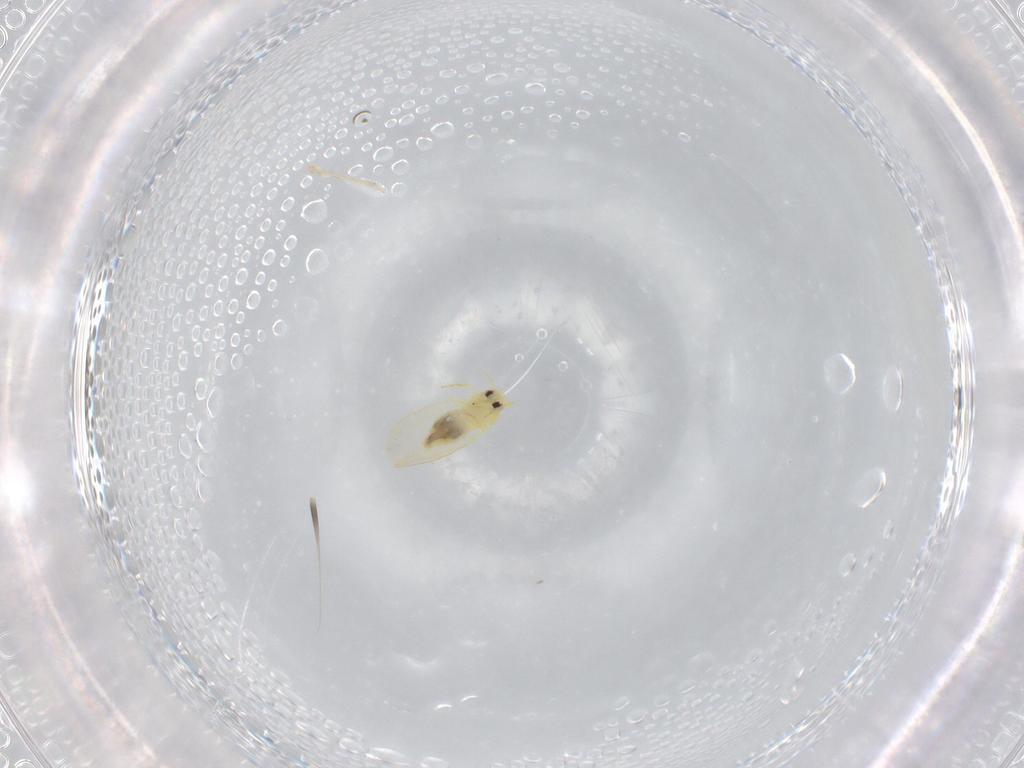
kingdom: Animalia
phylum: Arthropoda
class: Insecta
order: Hemiptera
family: Aleyrodidae
